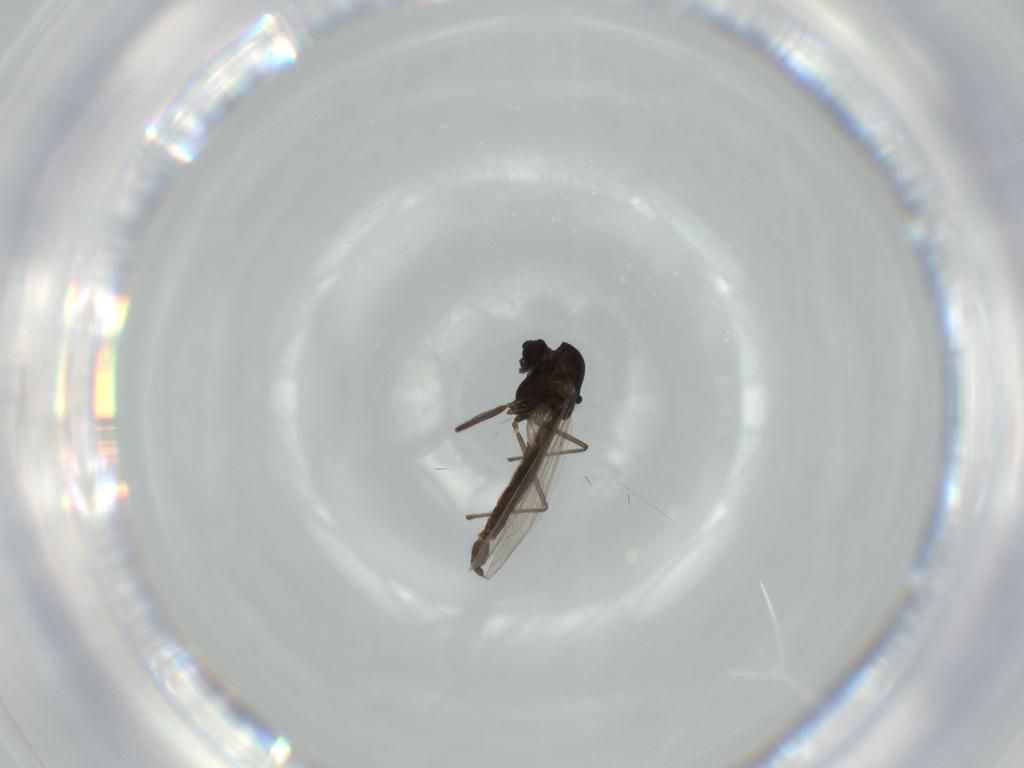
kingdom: Animalia
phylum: Arthropoda
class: Insecta
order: Diptera
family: Chironomidae
